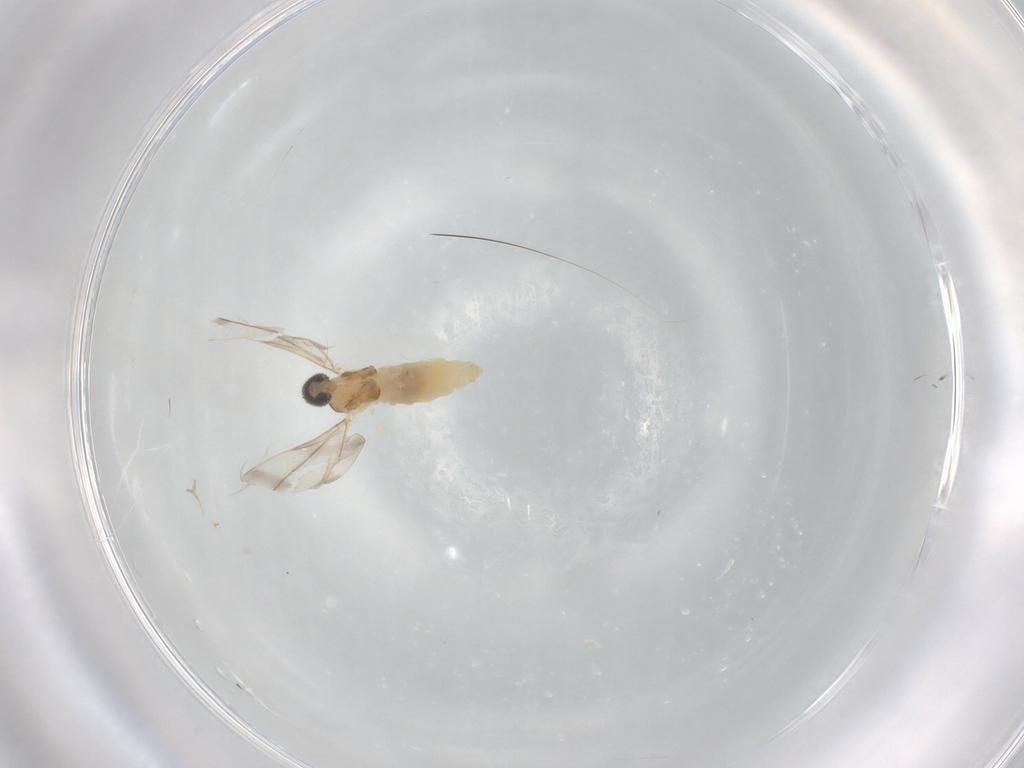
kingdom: Animalia
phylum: Arthropoda
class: Insecta
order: Diptera
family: Cecidomyiidae
